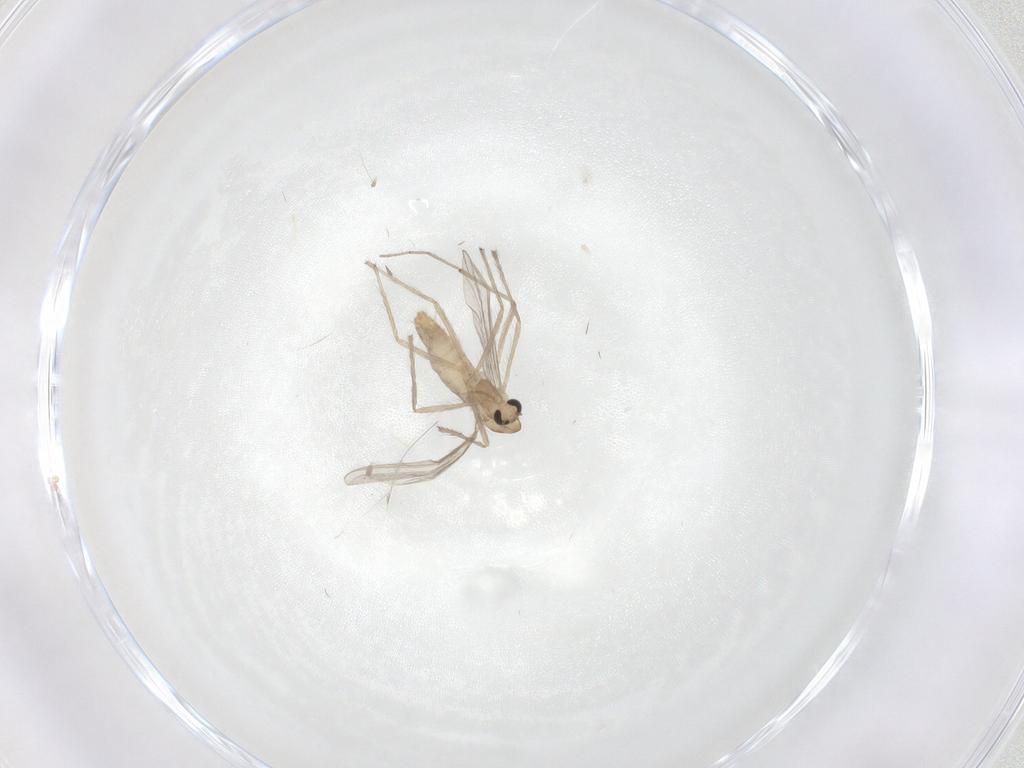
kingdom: Animalia
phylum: Arthropoda
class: Insecta
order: Diptera
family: Chironomidae
